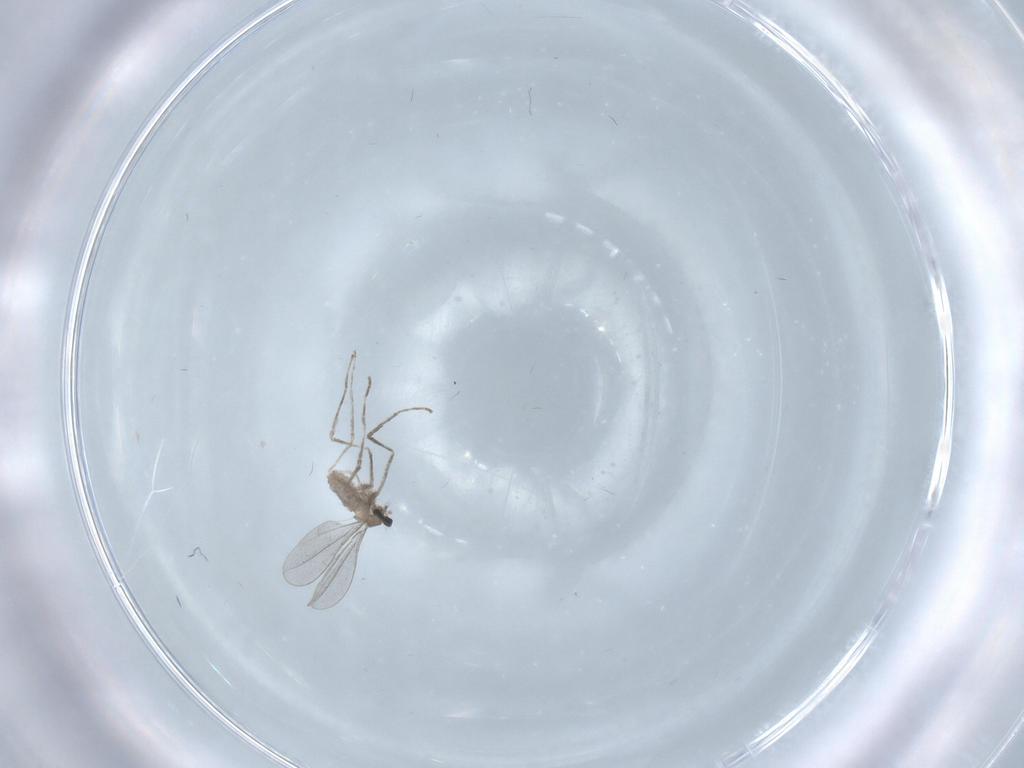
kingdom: Animalia
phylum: Arthropoda
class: Insecta
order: Diptera
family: Cecidomyiidae
